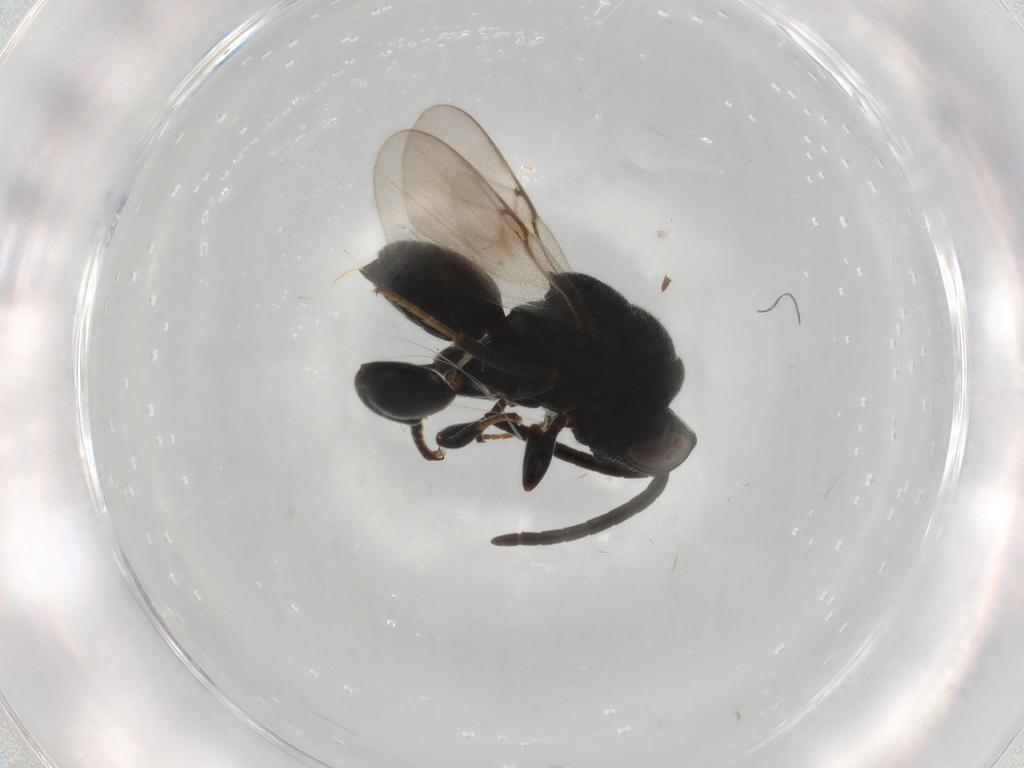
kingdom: Animalia
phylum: Arthropoda
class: Insecta
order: Hymenoptera
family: Chalcididae
